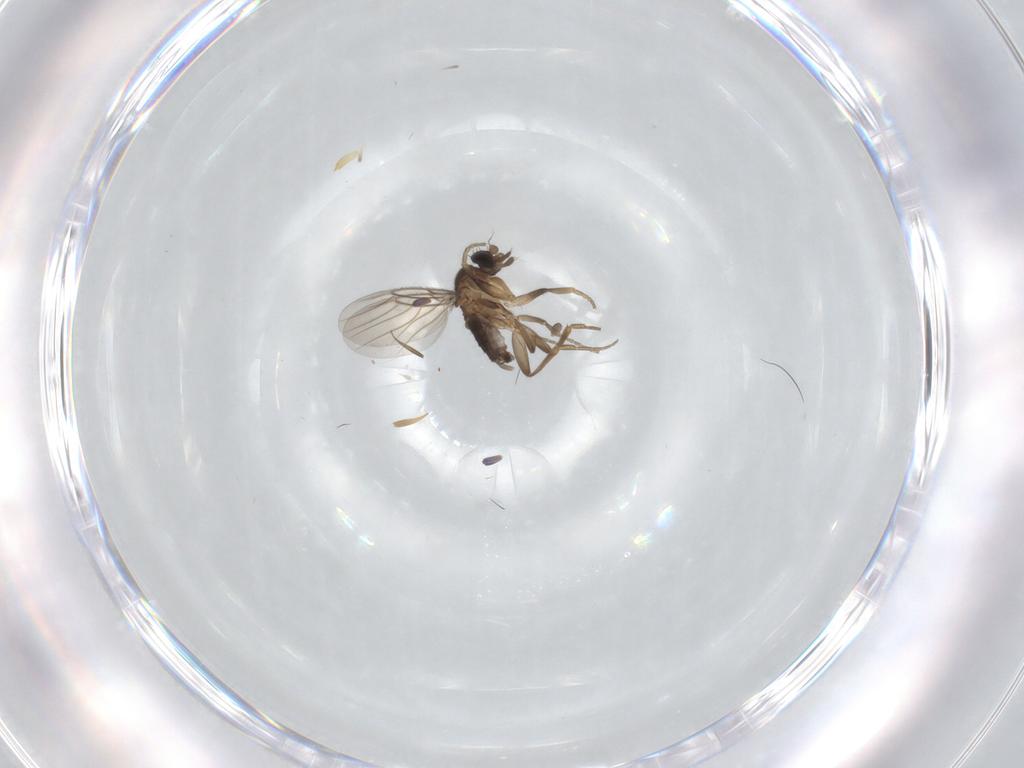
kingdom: Animalia
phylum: Arthropoda
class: Insecta
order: Diptera
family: Phoridae
